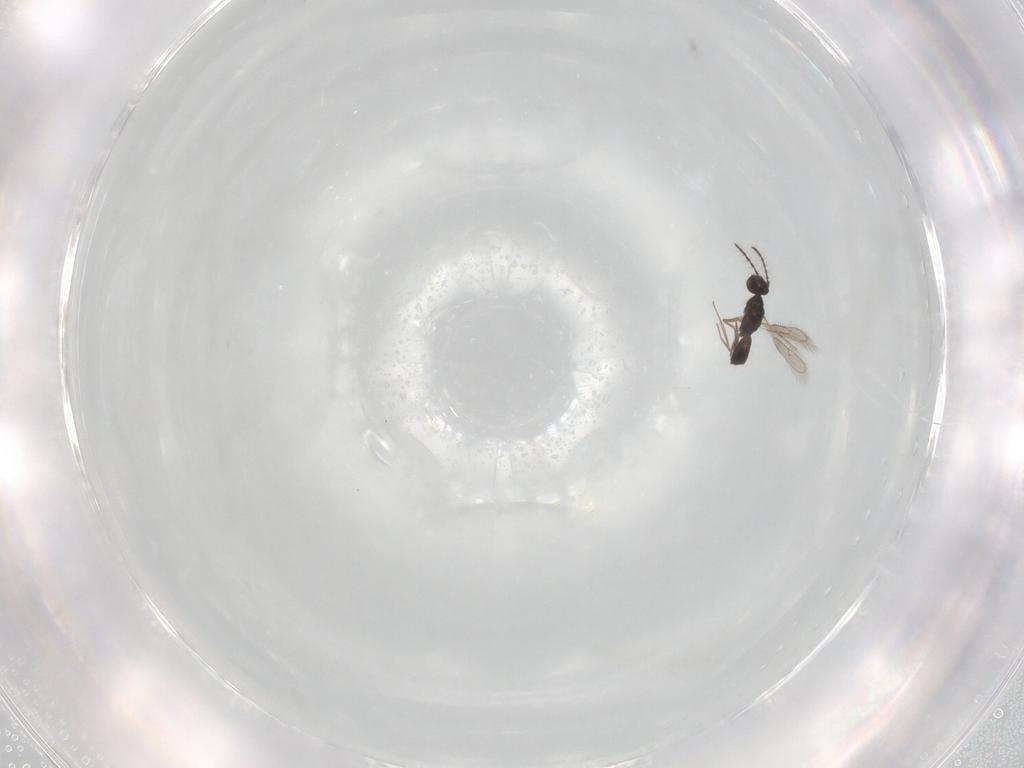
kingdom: Animalia
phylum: Arthropoda
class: Insecta
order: Hymenoptera
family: Pteromalidae
